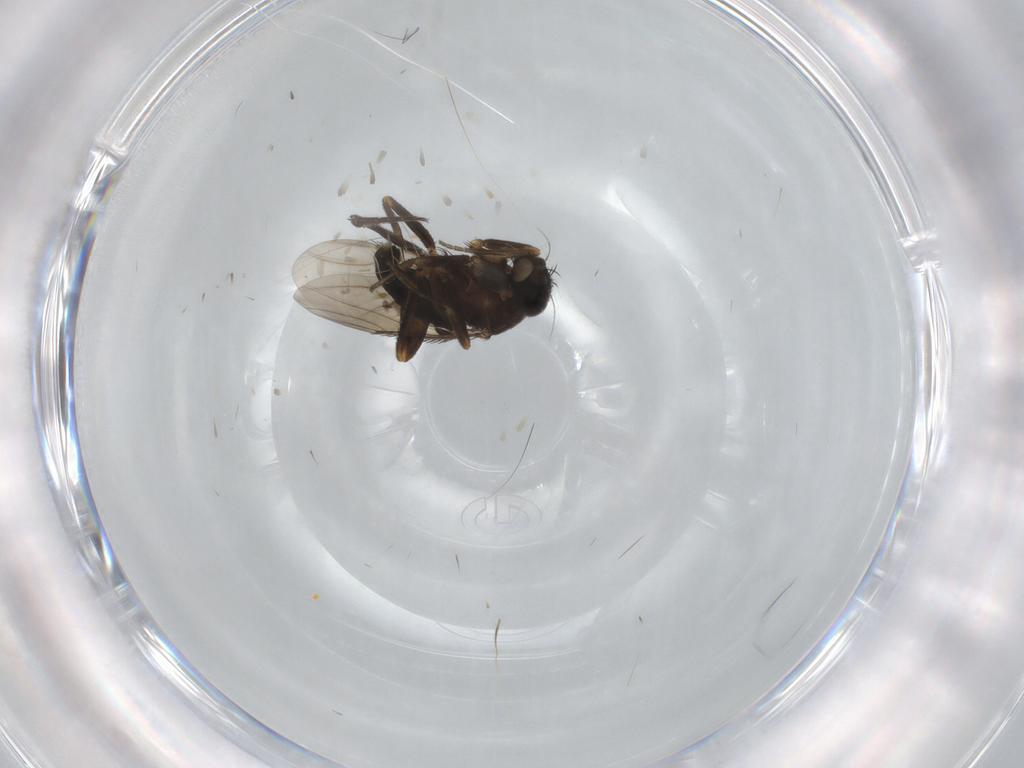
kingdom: Animalia
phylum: Arthropoda
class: Insecta
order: Diptera
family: Phoridae
